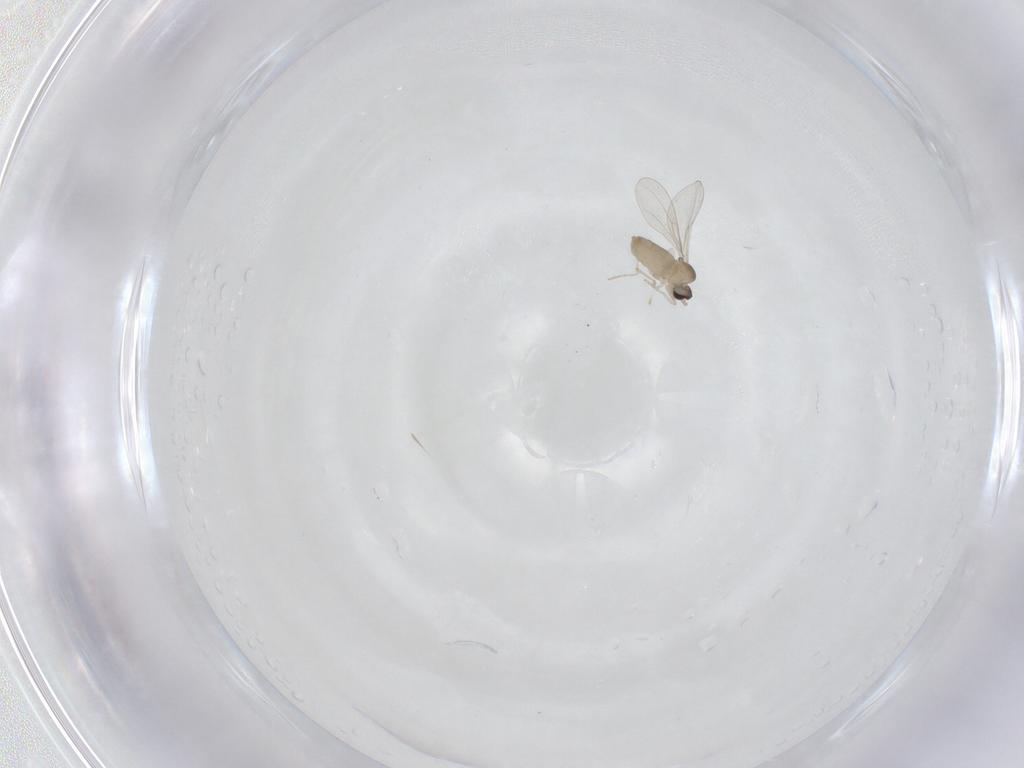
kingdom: Animalia
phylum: Arthropoda
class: Insecta
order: Diptera
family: Cecidomyiidae
